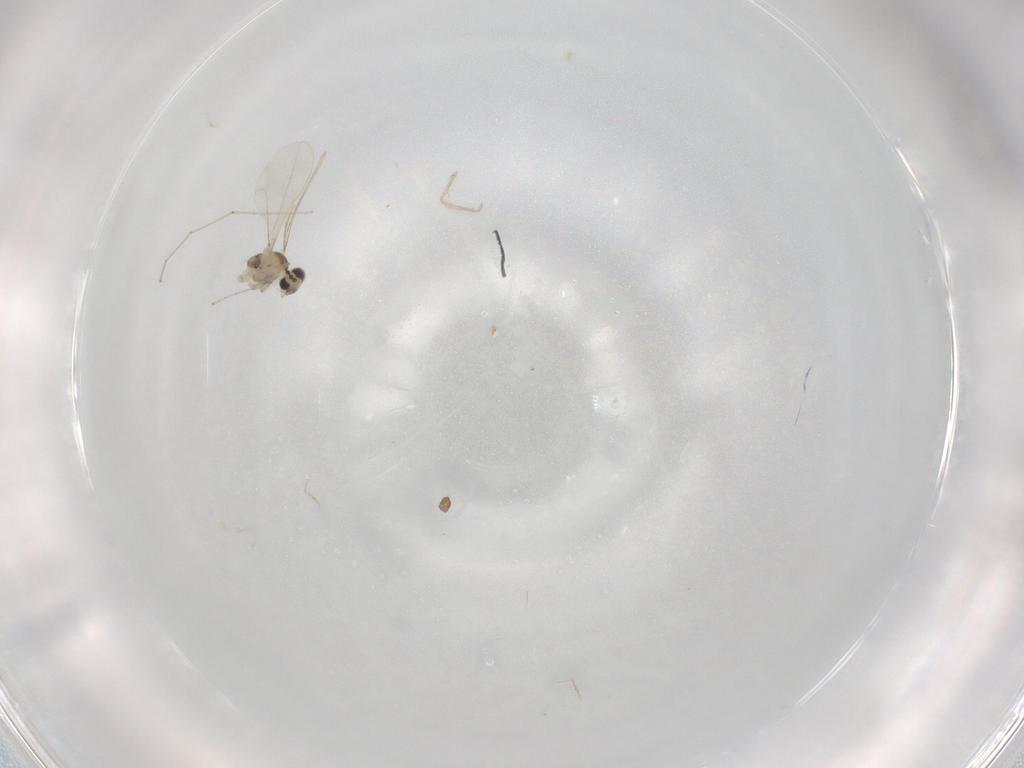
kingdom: Animalia
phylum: Arthropoda
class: Insecta
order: Diptera
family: Cecidomyiidae
